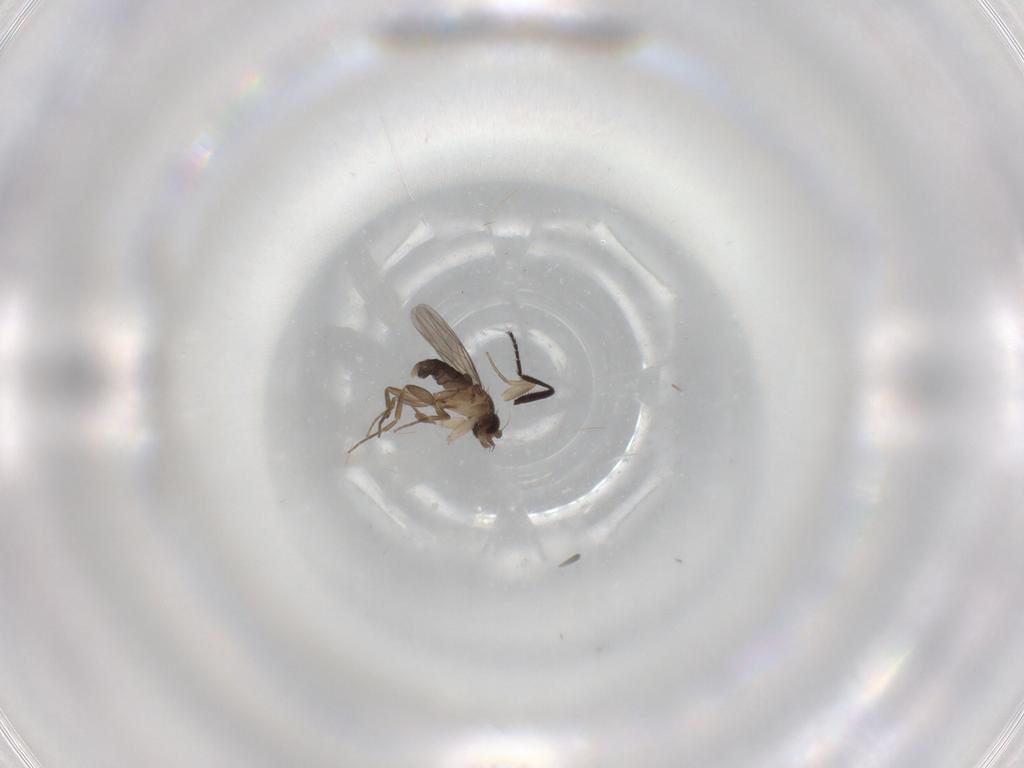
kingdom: Animalia
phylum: Arthropoda
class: Insecta
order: Diptera
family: Phoridae
